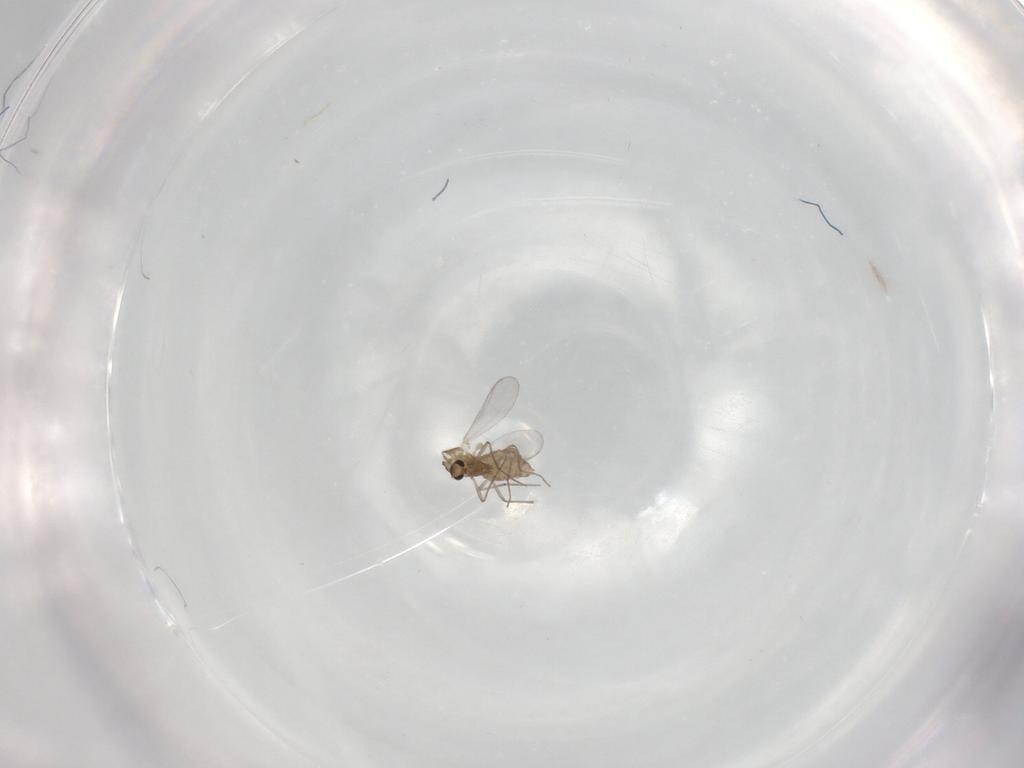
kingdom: Animalia
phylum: Arthropoda
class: Insecta
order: Diptera
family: Chironomidae
